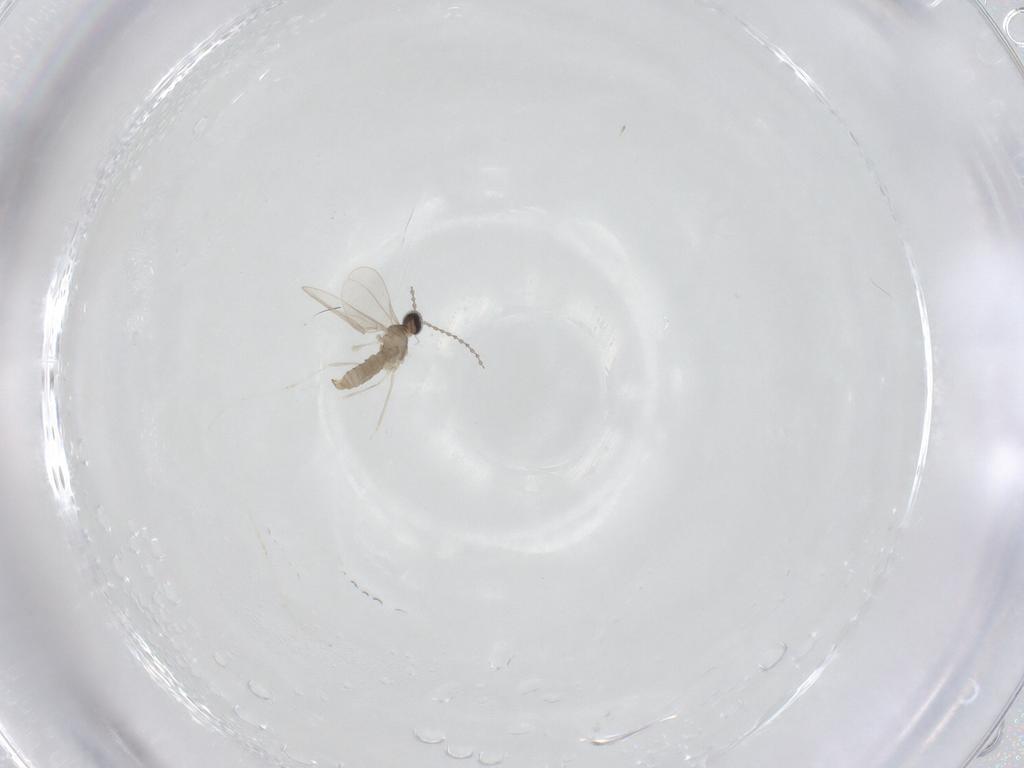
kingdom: Animalia
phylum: Arthropoda
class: Insecta
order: Diptera
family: Cecidomyiidae
